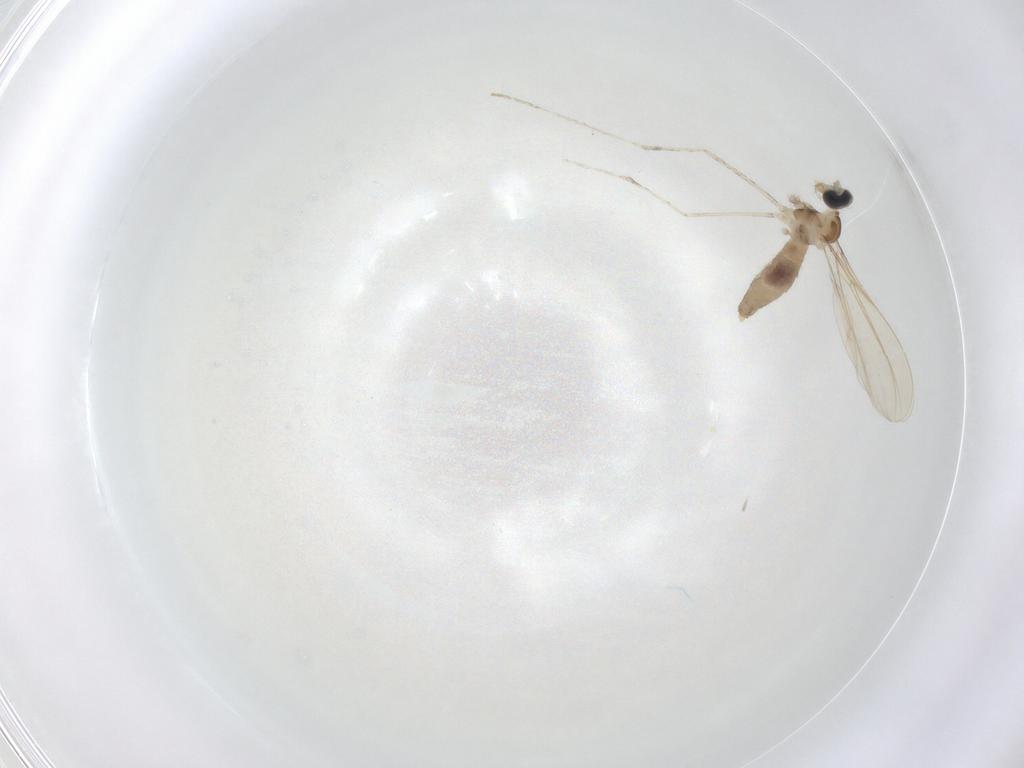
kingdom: Animalia
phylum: Arthropoda
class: Insecta
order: Diptera
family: Cecidomyiidae
